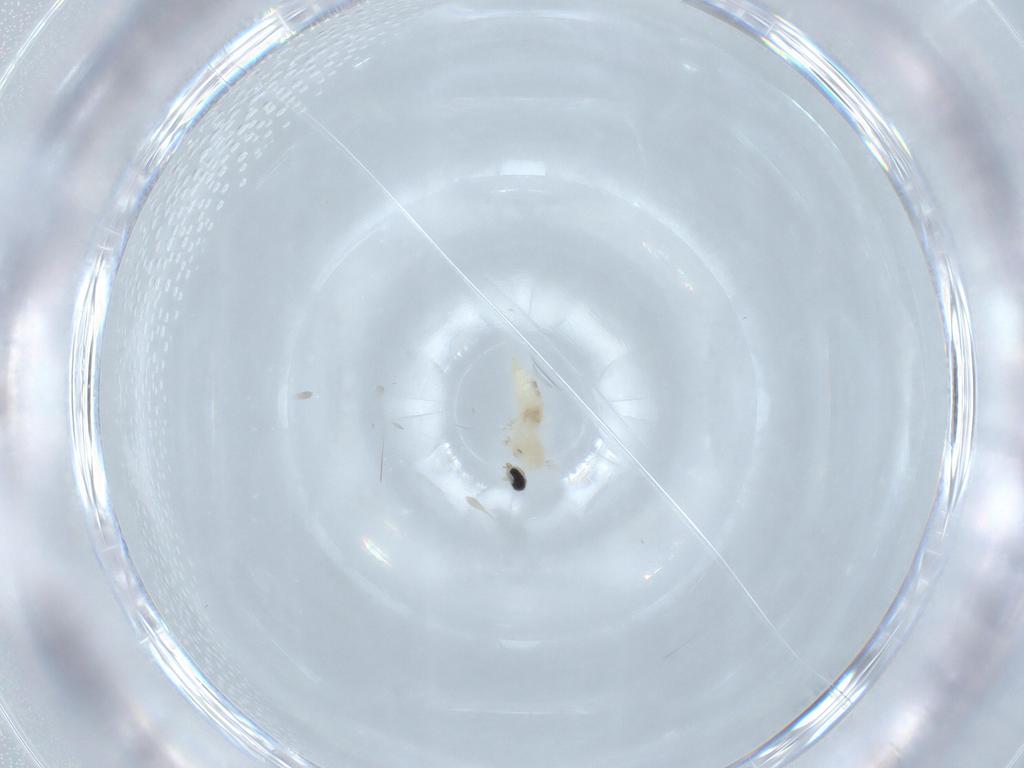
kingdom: Animalia
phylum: Arthropoda
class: Insecta
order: Diptera
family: Cecidomyiidae
